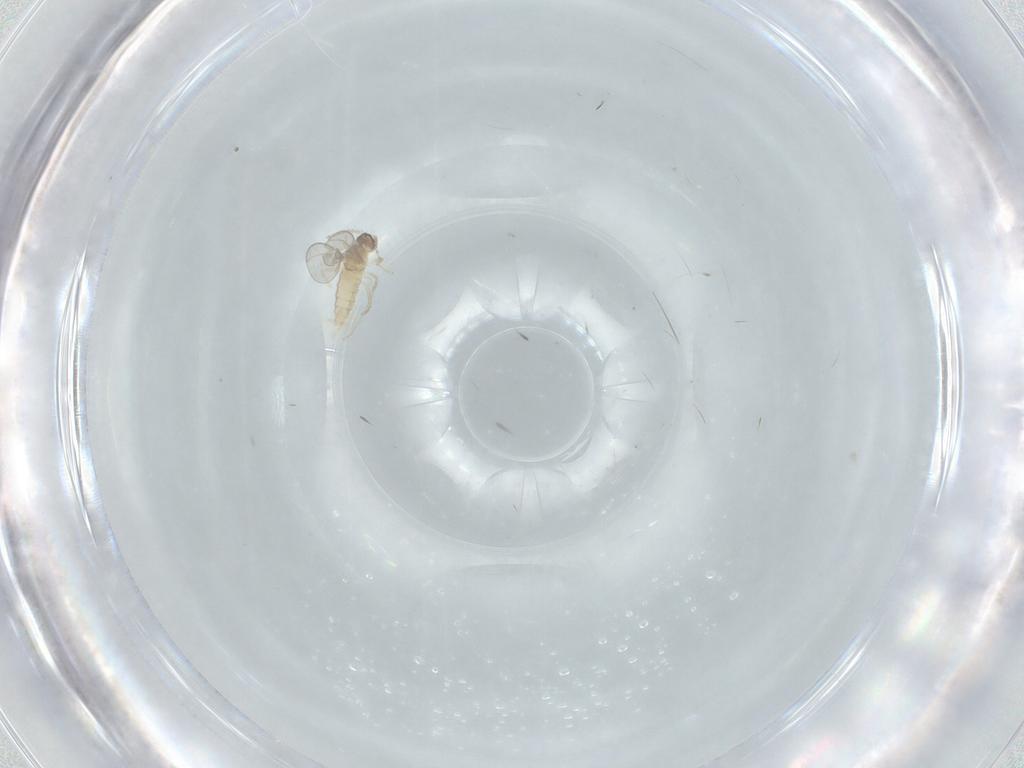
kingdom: Animalia
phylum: Arthropoda
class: Insecta
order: Diptera
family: Cecidomyiidae
